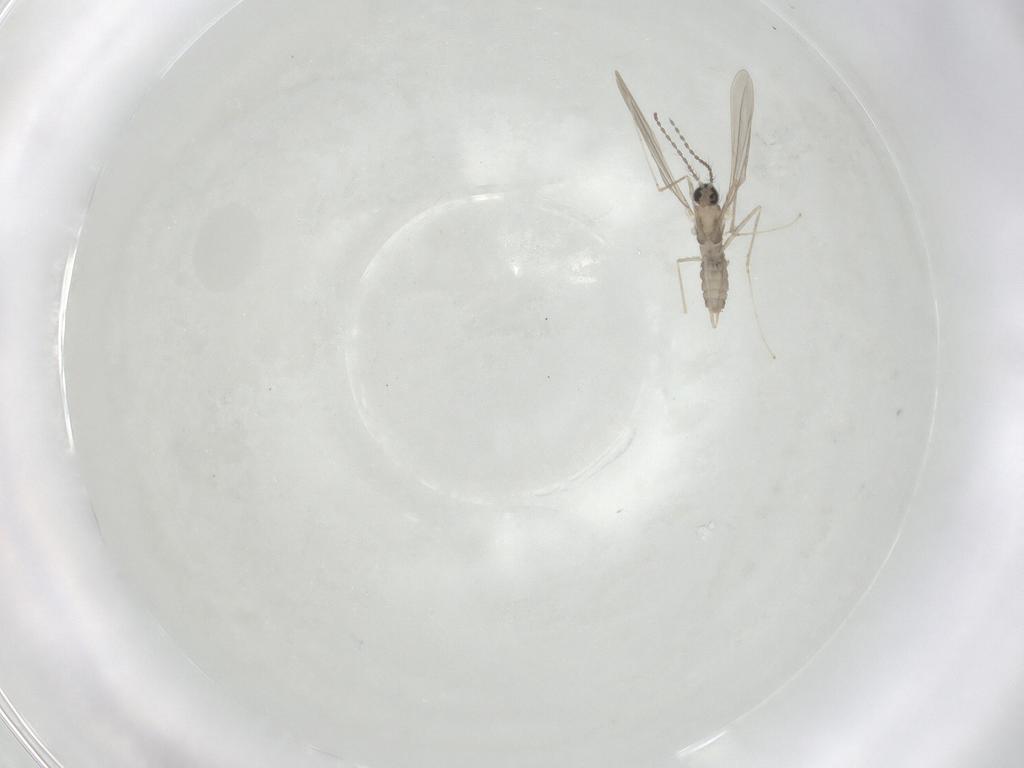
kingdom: Animalia
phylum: Arthropoda
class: Insecta
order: Diptera
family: Cecidomyiidae
